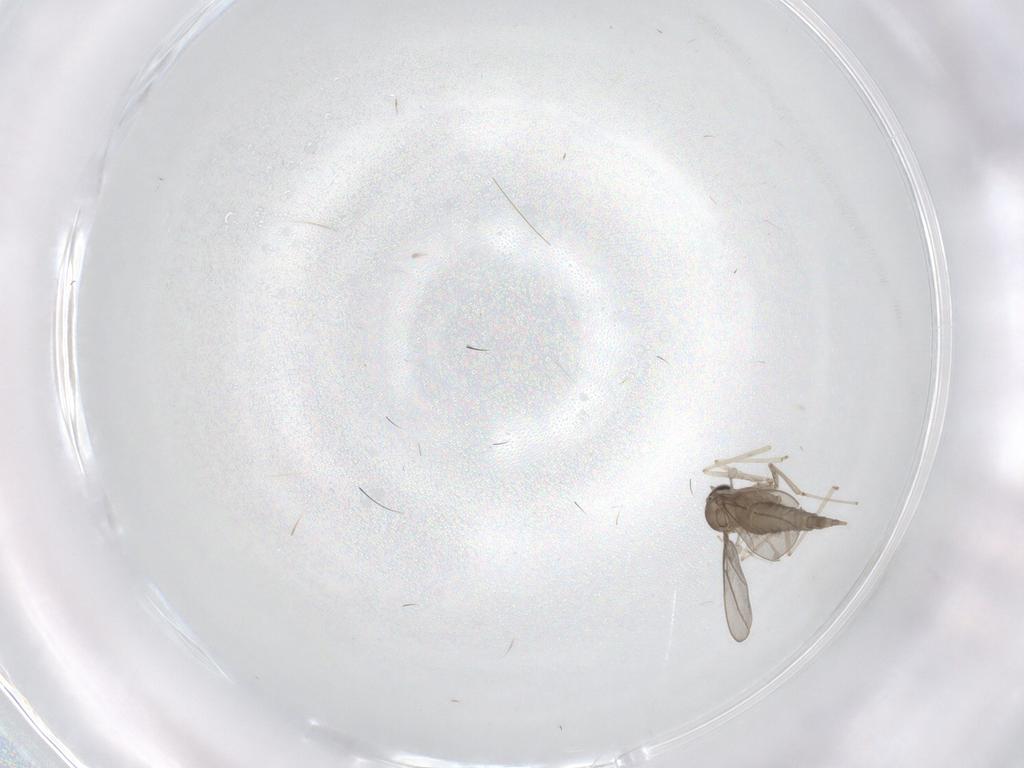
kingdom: Animalia
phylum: Arthropoda
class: Insecta
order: Diptera
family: Cecidomyiidae
